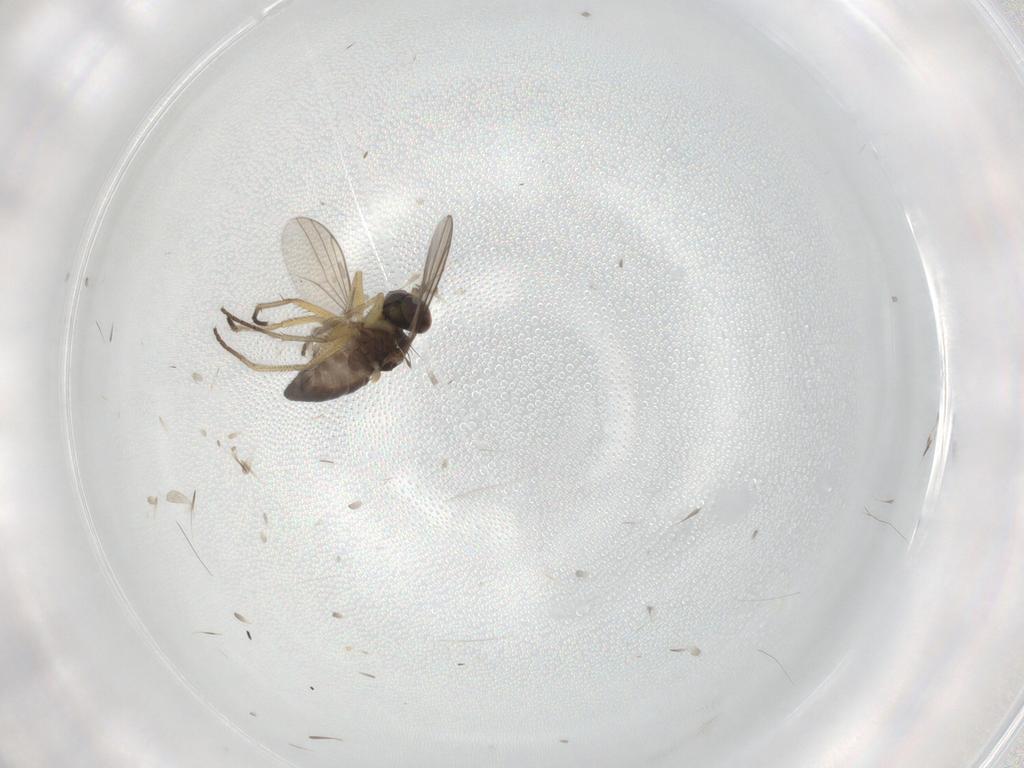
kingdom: Animalia
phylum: Arthropoda
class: Insecta
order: Diptera
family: Dolichopodidae
